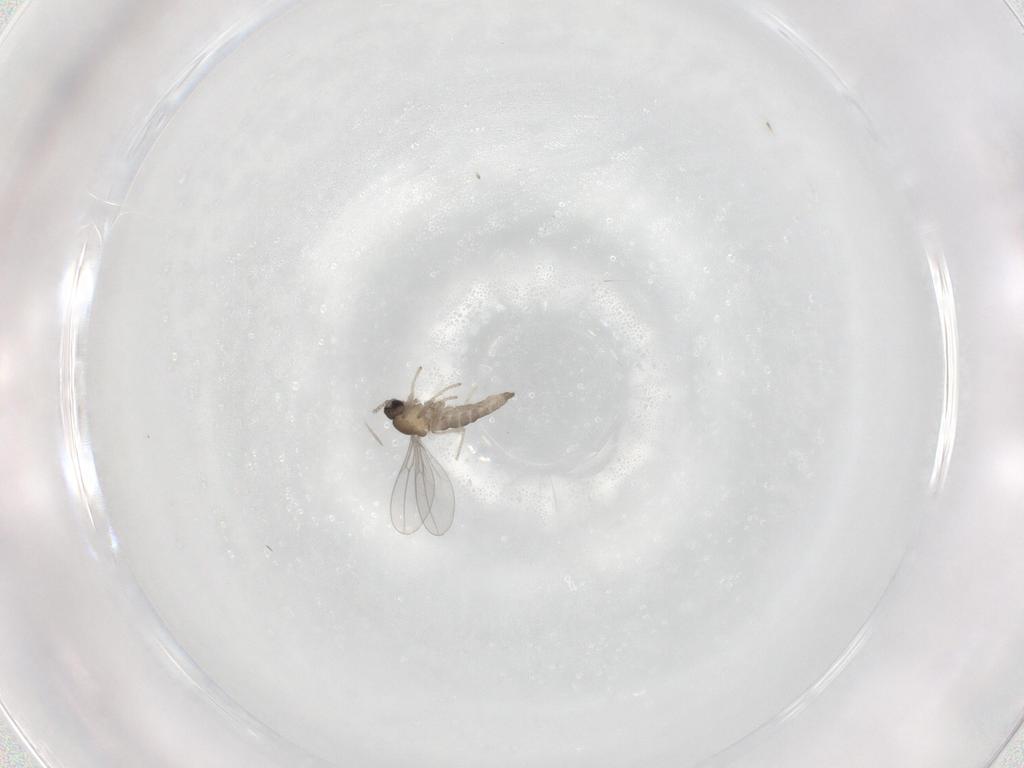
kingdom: Animalia
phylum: Arthropoda
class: Insecta
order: Diptera
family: Cecidomyiidae
